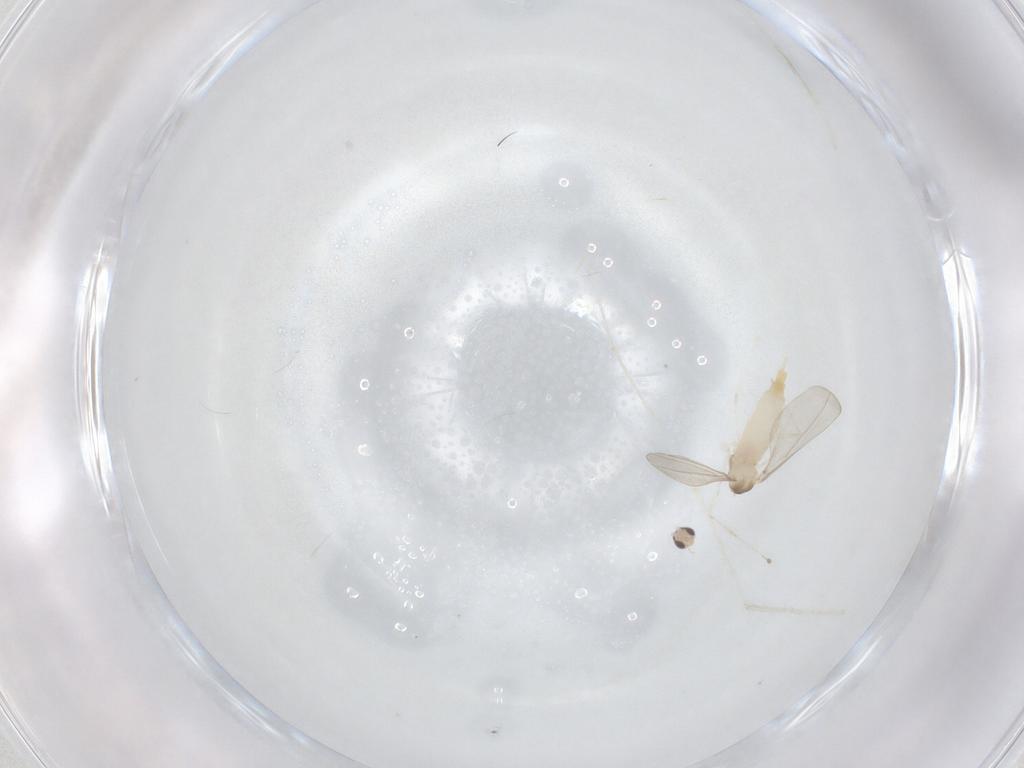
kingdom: Animalia
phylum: Arthropoda
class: Insecta
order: Diptera
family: Cecidomyiidae
